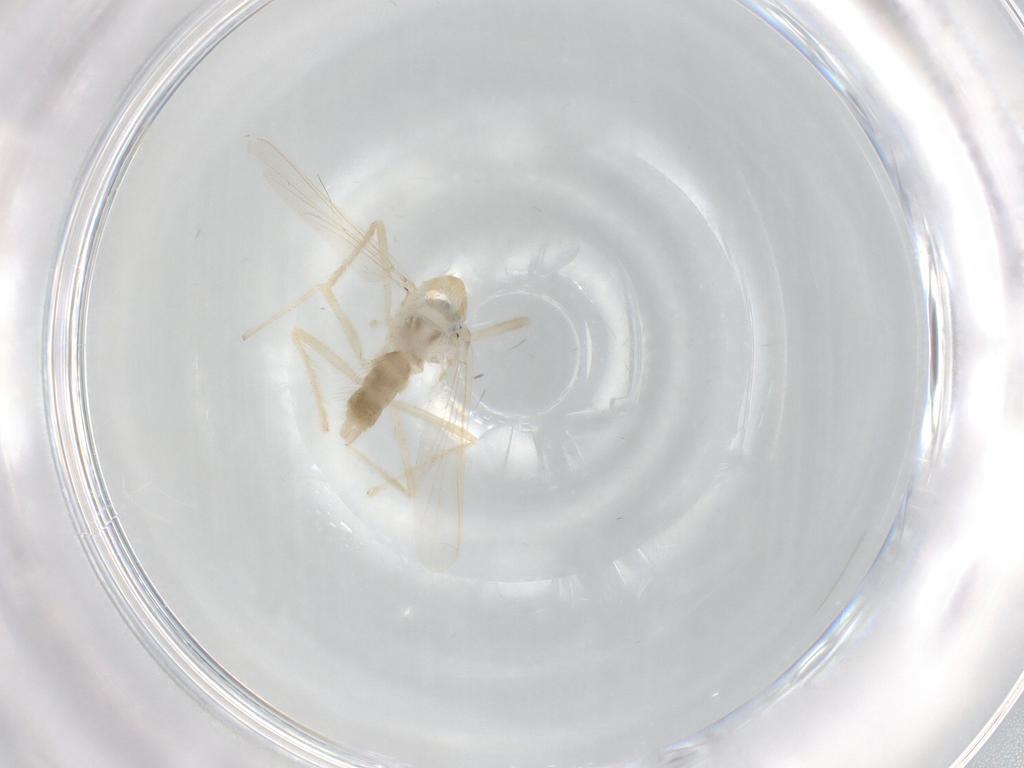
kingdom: Animalia
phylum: Arthropoda
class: Insecta
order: Diptera
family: Chironomidae
